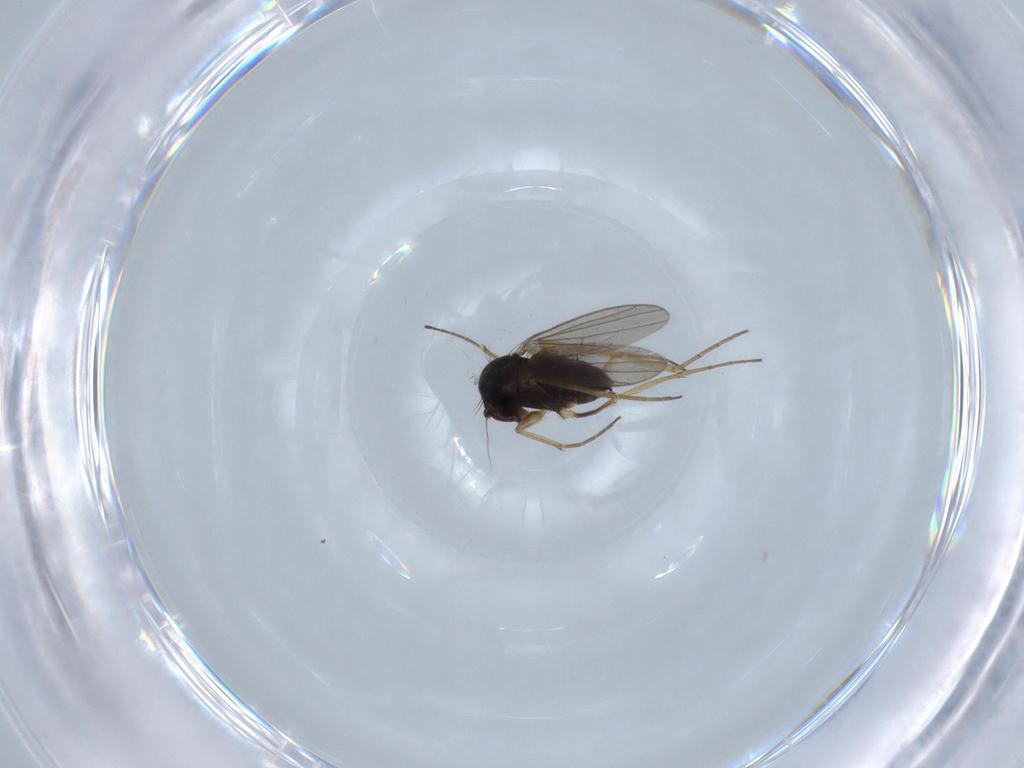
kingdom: Animalia
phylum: Arthropoda
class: Insecta
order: Diptera
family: Dolichopodidae
